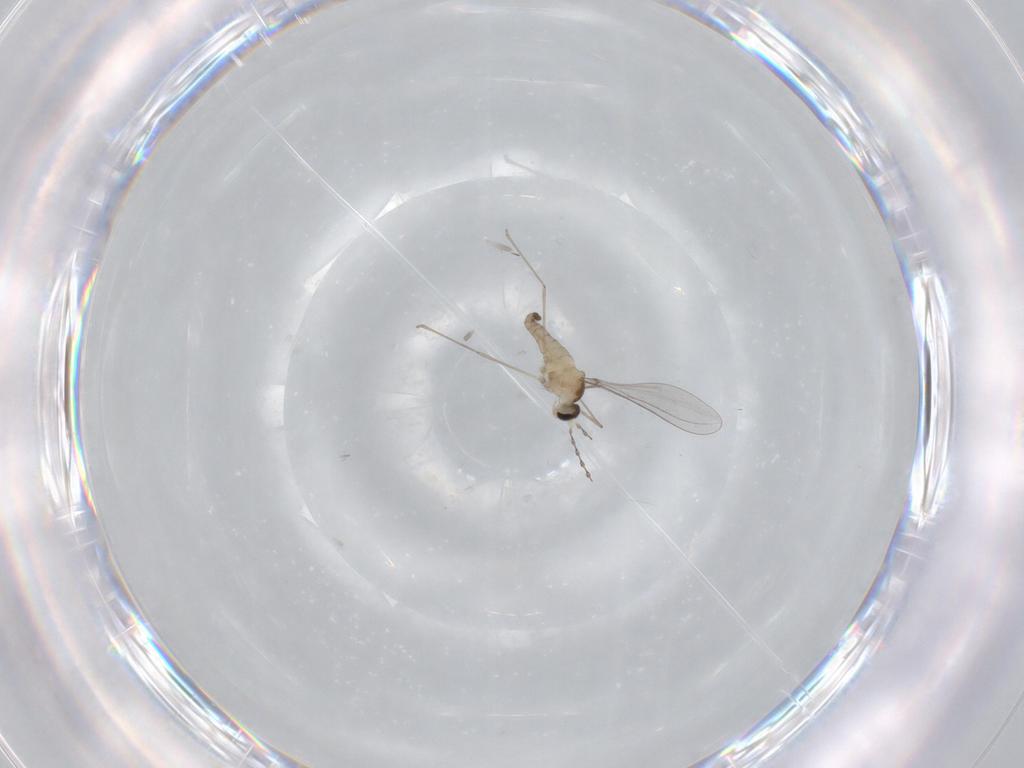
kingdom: Animalia
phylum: Arthropoda
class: Insecta
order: Diptera
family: Cecidomyiidae
